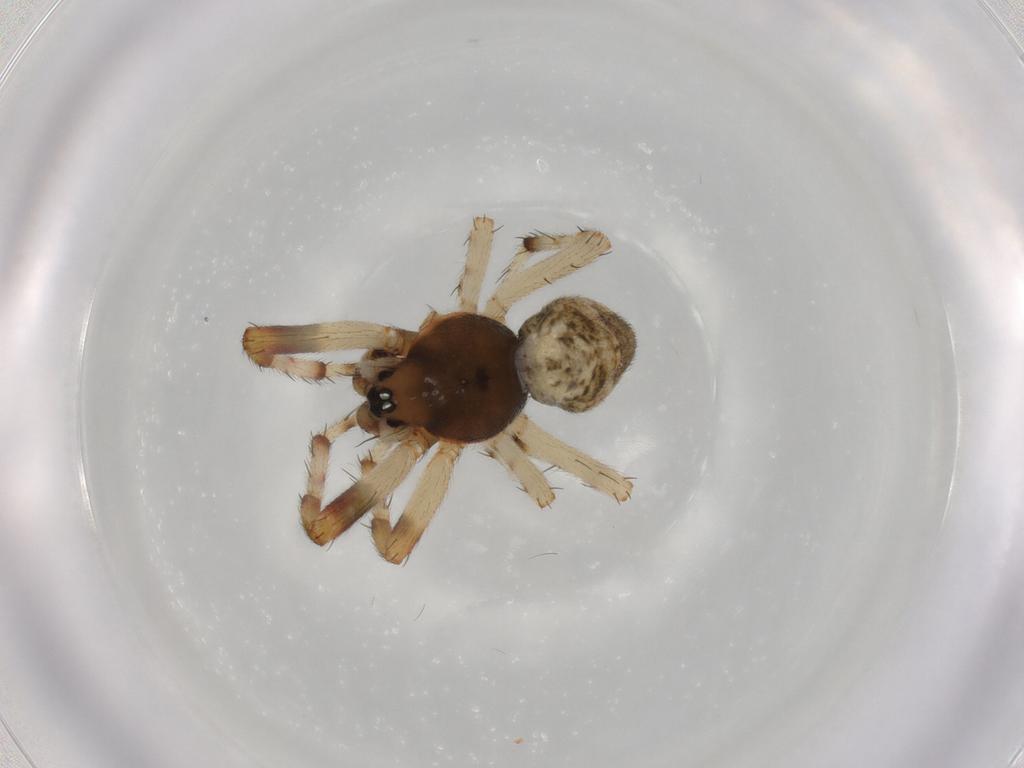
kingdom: Animalia
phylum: Arthropoda
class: Arachnida
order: Araneae
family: Araneidae
